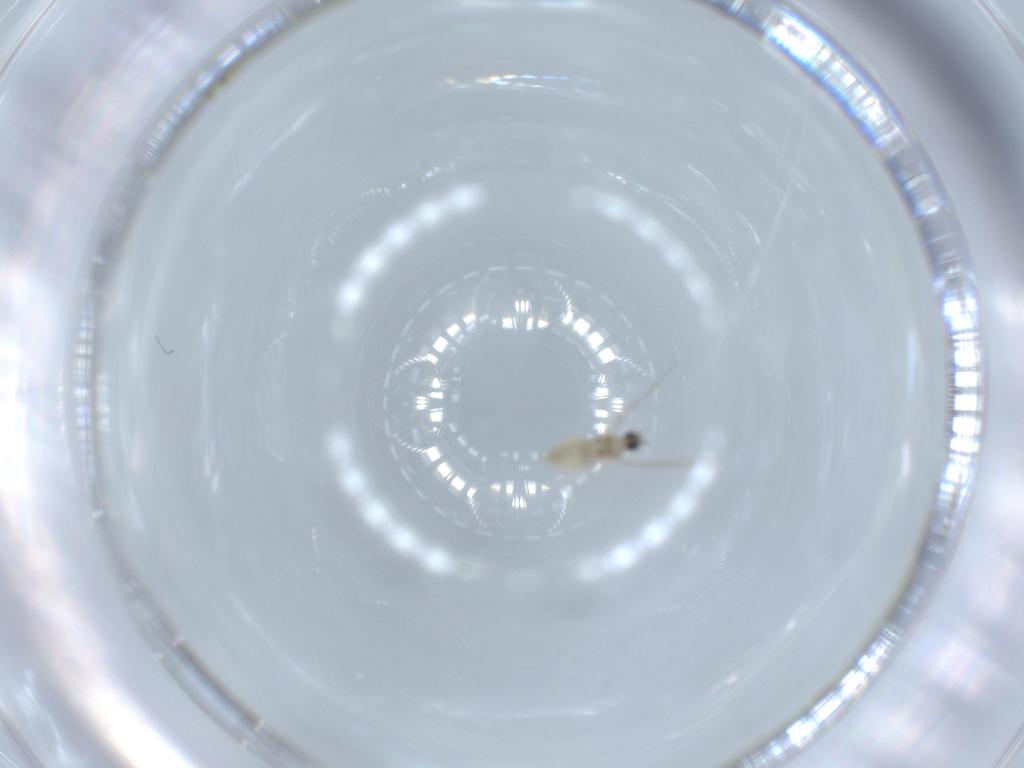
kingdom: Animalia
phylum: Arthropoda
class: Insecta
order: Diptera
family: Cecidomyiidae
